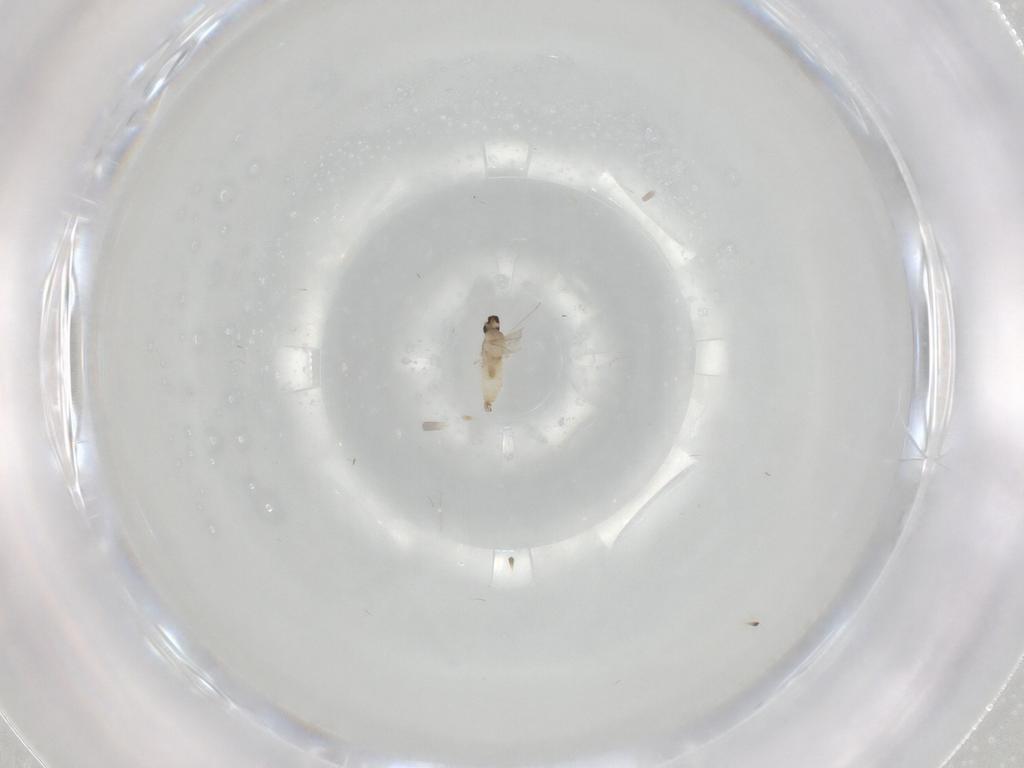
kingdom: Animalia
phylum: Arthropoda
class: Insecta
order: Diptera
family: Cecidomyiidae
